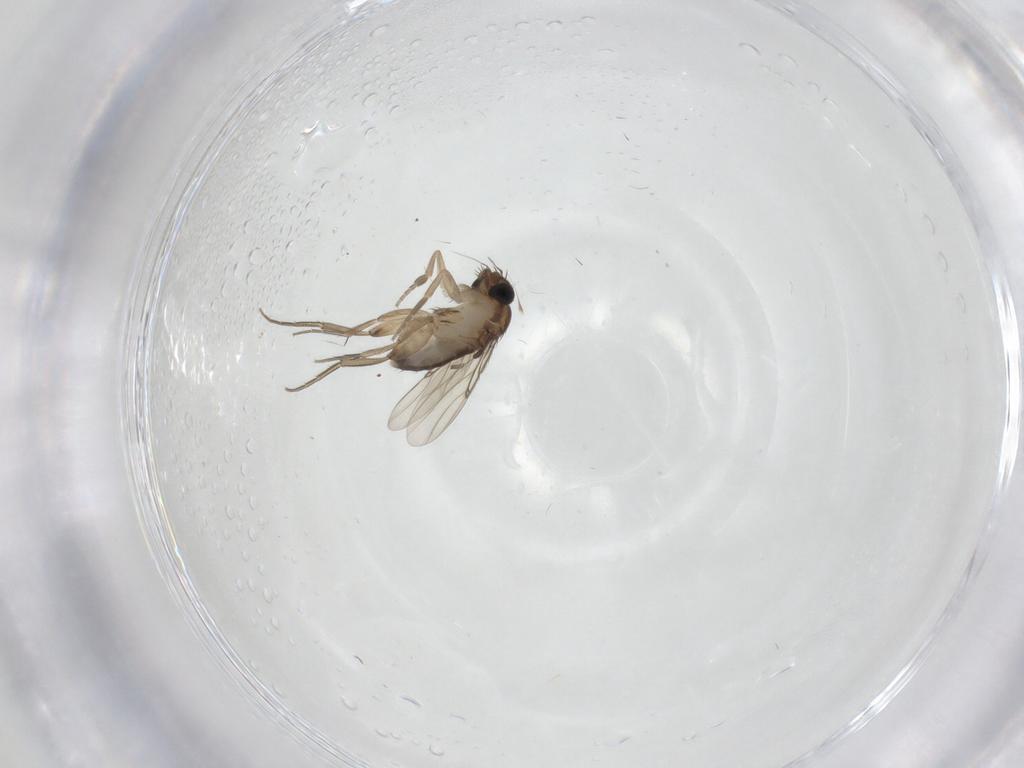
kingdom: Animalia
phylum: Arthropoda
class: Insecta
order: Diptera
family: Phoridae
